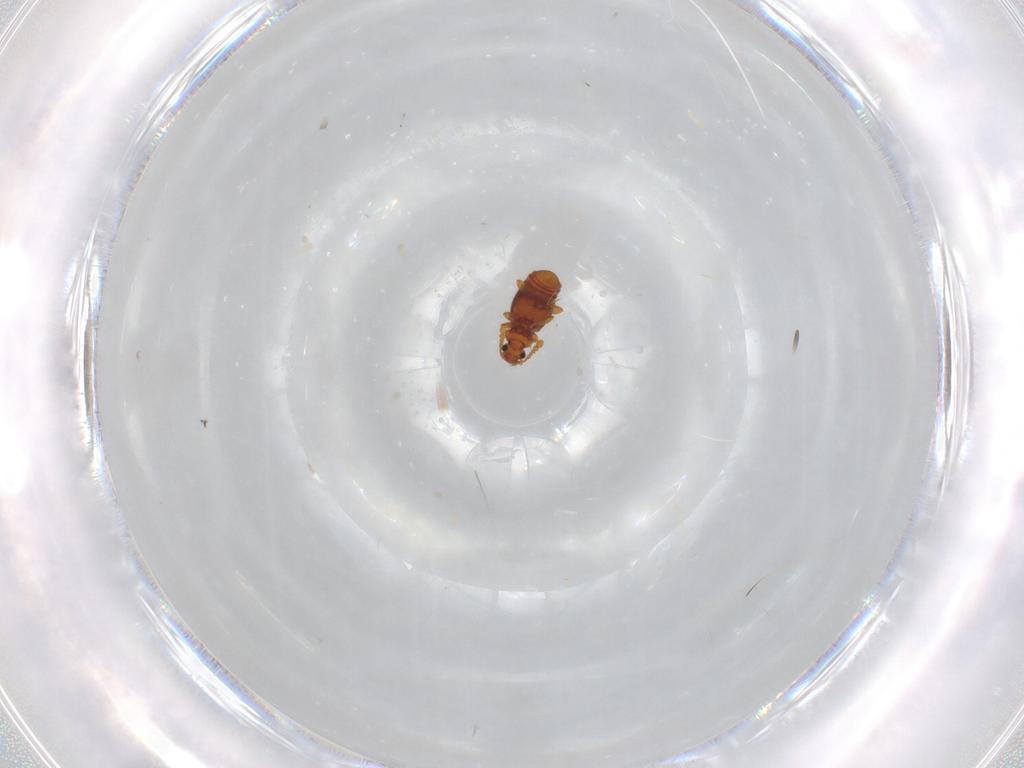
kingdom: Animalia
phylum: Arthropoda
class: Insecta
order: Coleoptera
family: Staphylinidae
